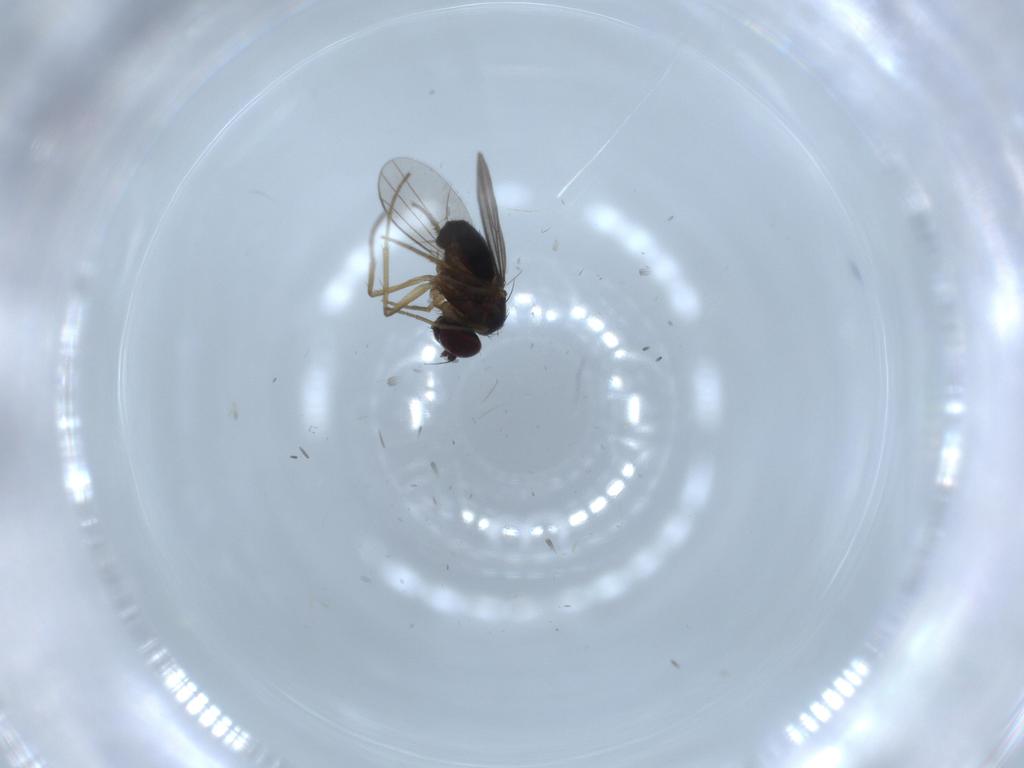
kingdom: Animalia
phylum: Arthropoda
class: Insecta
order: Diptera
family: Dolichopodidae
